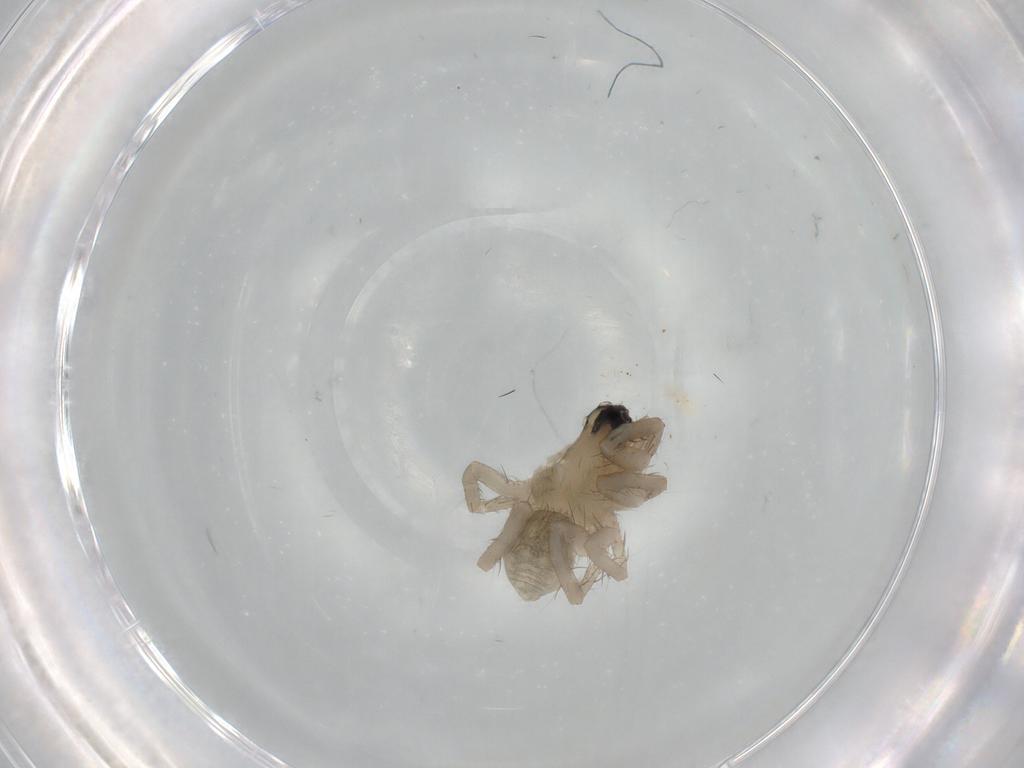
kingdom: Animalia
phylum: Arthropoda
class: Arachnida
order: Araneae
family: Lycosidae
